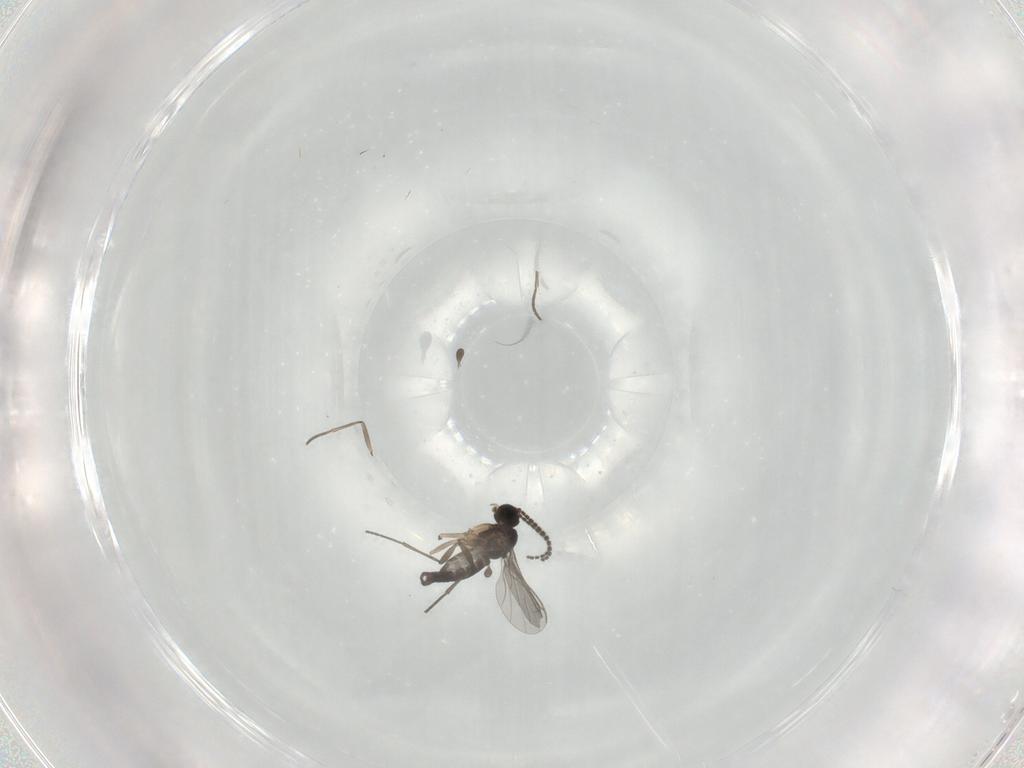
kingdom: Animalia
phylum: Arthropoda
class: Insecta
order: Diptera
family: Sciaridae
